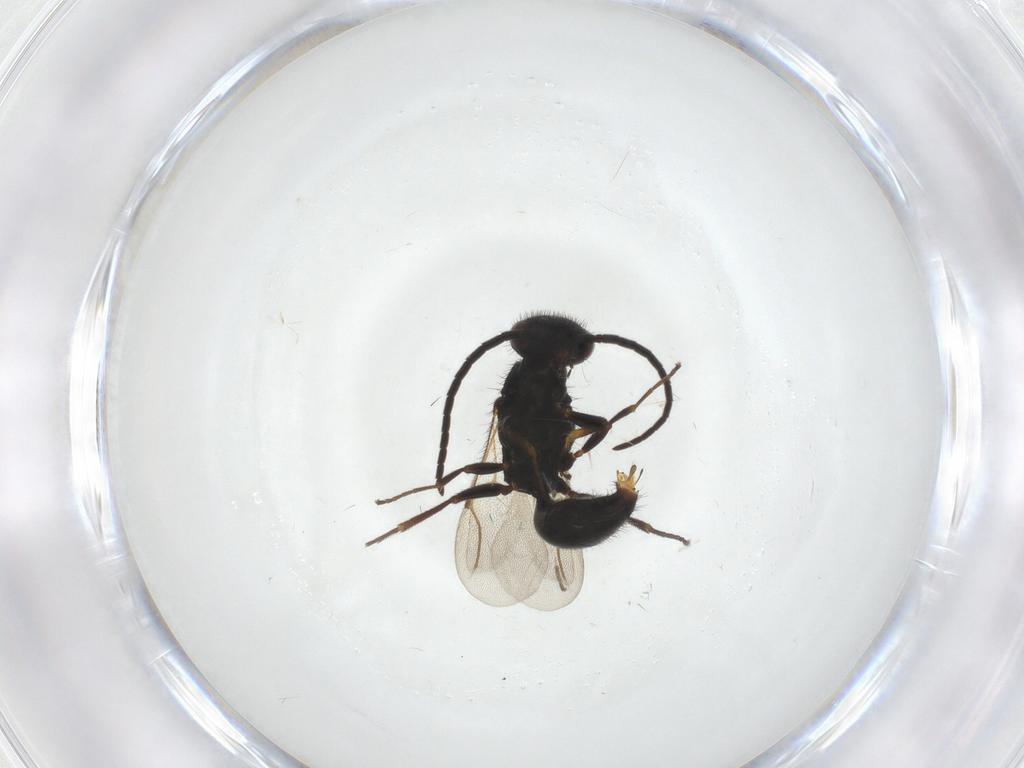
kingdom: Animalia
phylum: Arthropoda
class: Insecta
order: Hymenoptera
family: Bethylidae
